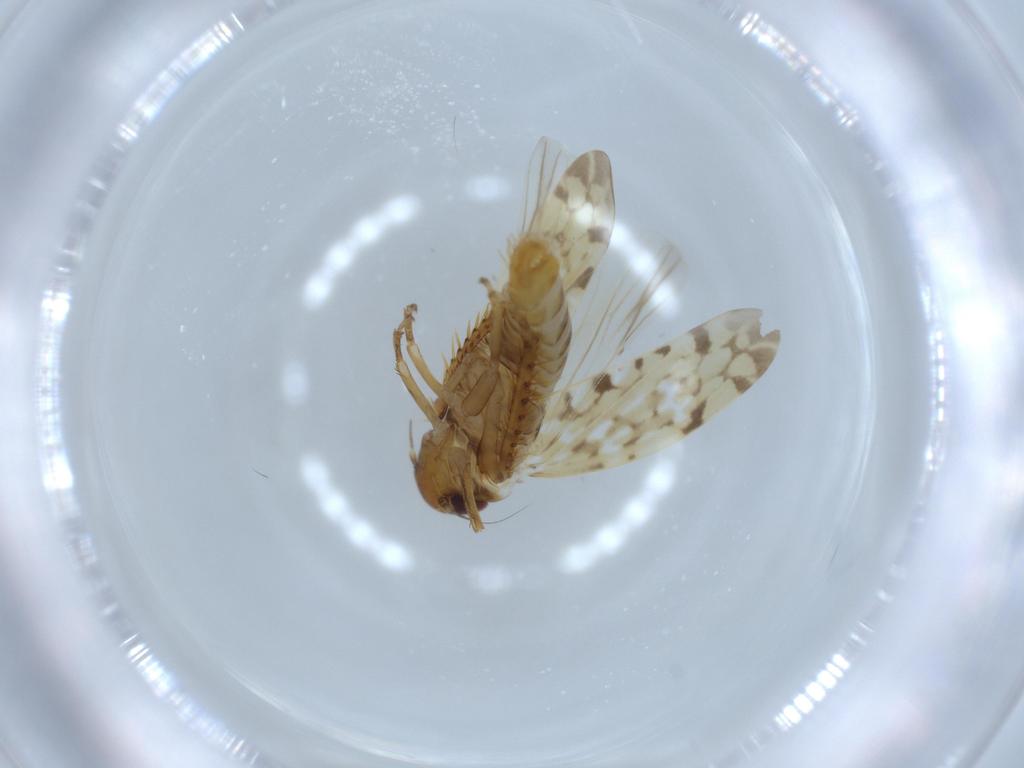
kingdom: Animalia
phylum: Arthropoda
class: Insecta
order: Hemiptera
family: Cicadellidae
